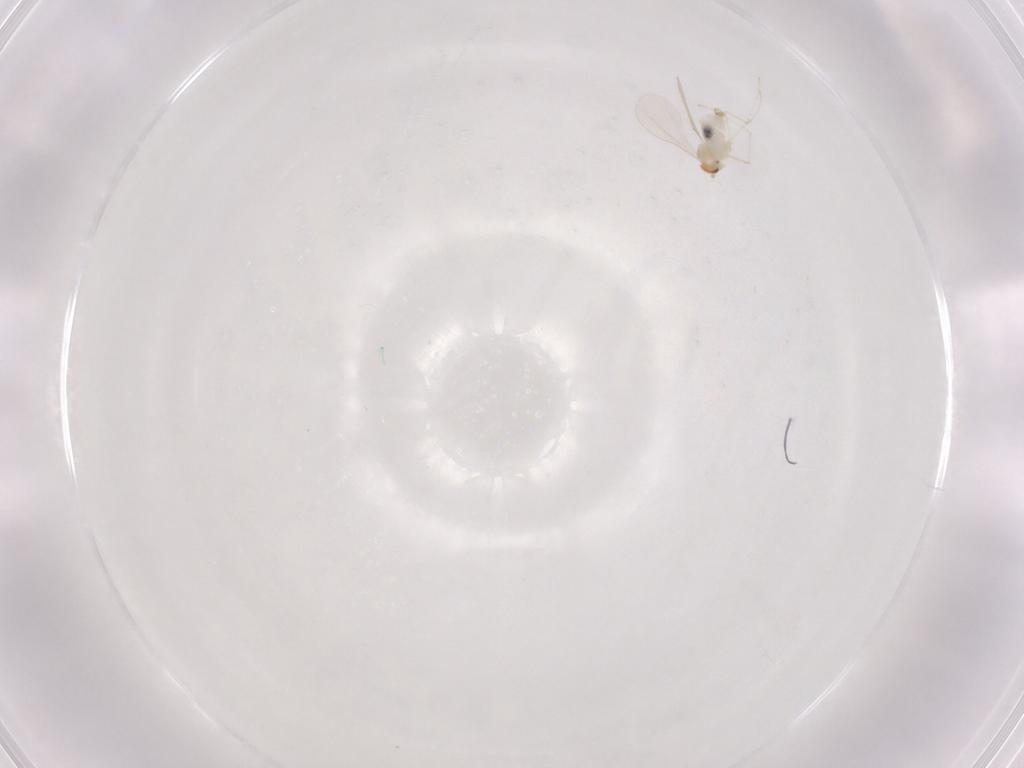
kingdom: Animalia
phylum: Arthropoda
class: Insecta
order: Diptera
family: Cecidomyiidae
